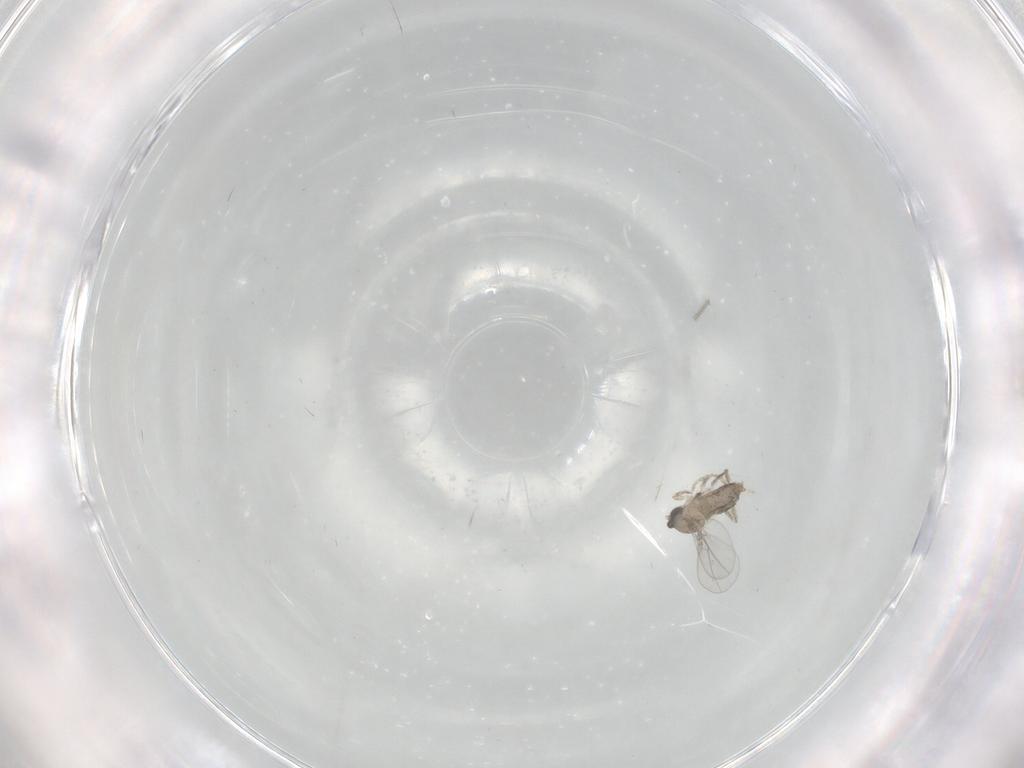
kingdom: Animalia
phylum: Arthropoda
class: Insecta
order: Diptera
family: Cecidomyiidae
